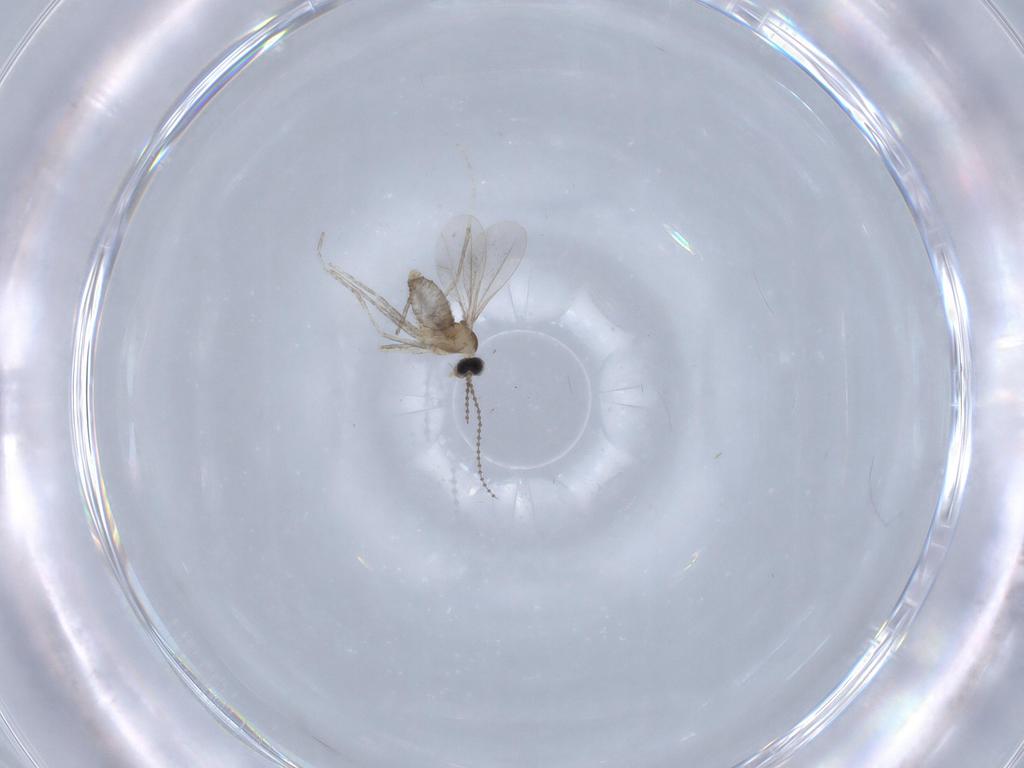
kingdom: Animalia
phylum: Arthropoda
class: Insecta
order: Diptera
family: Cecidomyiidae
